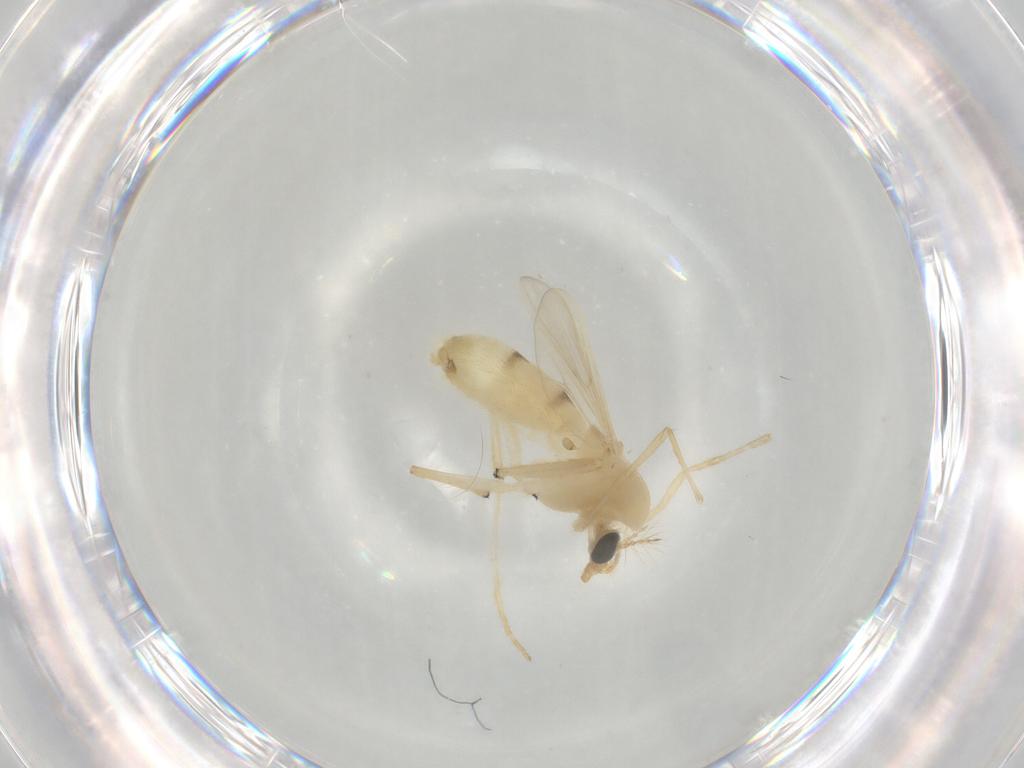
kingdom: Animalia
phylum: Arthropoda
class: Insecta
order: Diptera
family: Chironomidae
